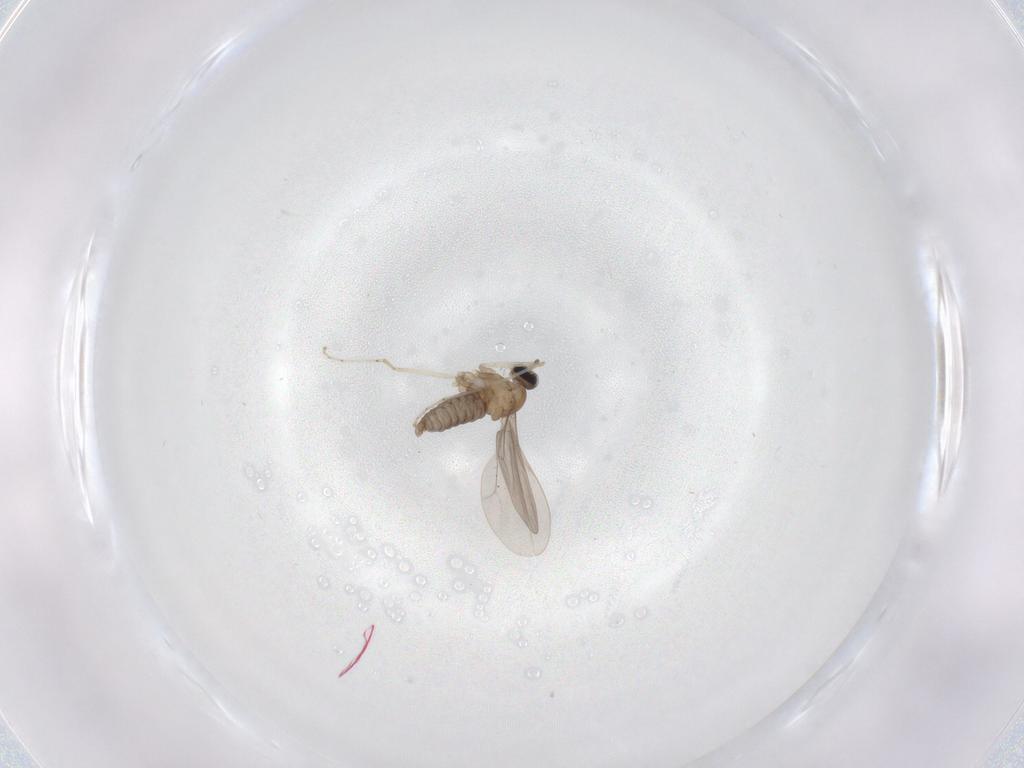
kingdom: Animalia
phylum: Arthropoda
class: Insecta
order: Diptera
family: Cecidomyiidae
